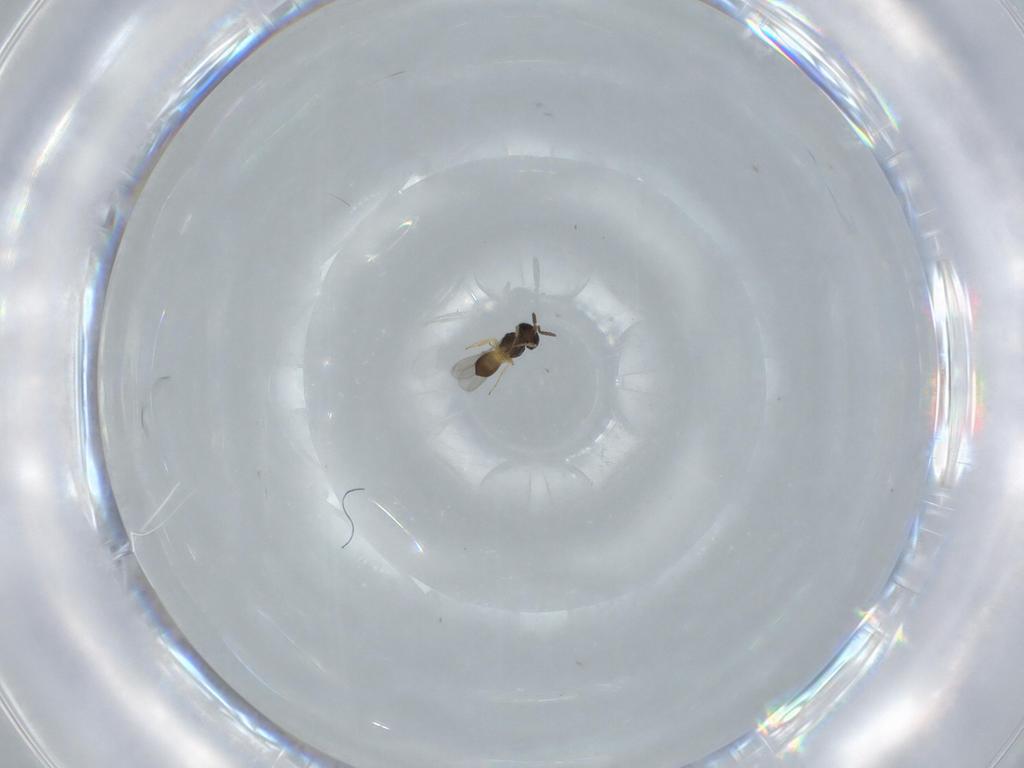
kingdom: Animalia
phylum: Arthropoda
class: Insecta
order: Hymenoptera
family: Scelionidae
